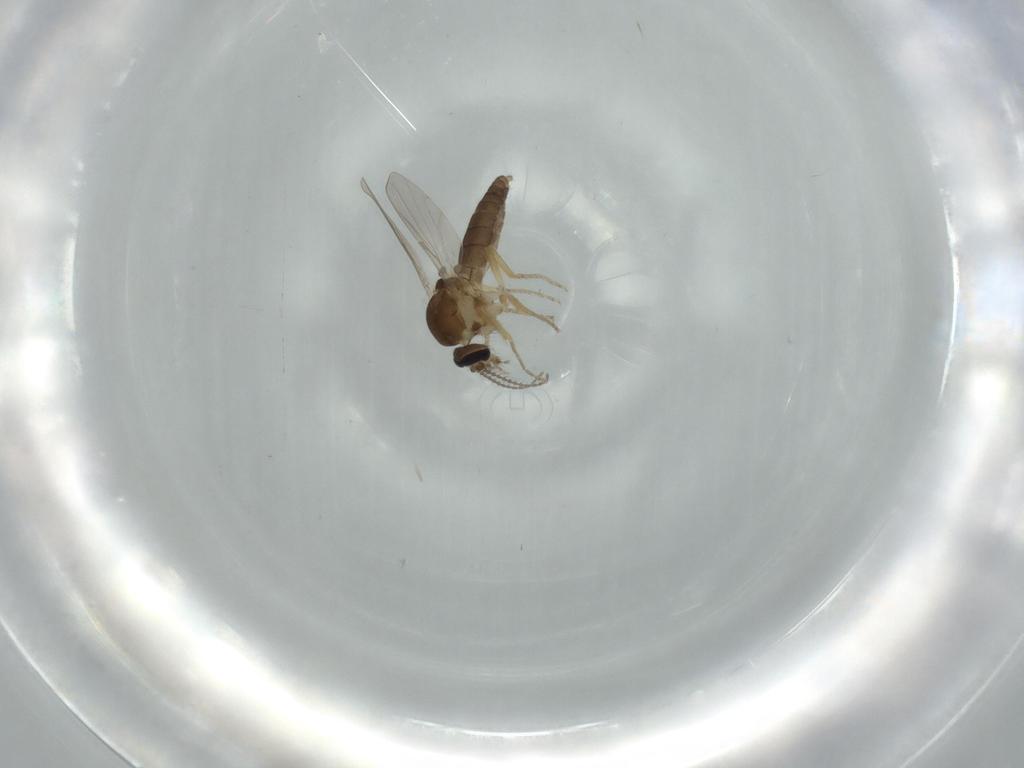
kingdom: Animalia
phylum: Arthropoda
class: Insecta
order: Diptera
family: Ceratopogonidae
